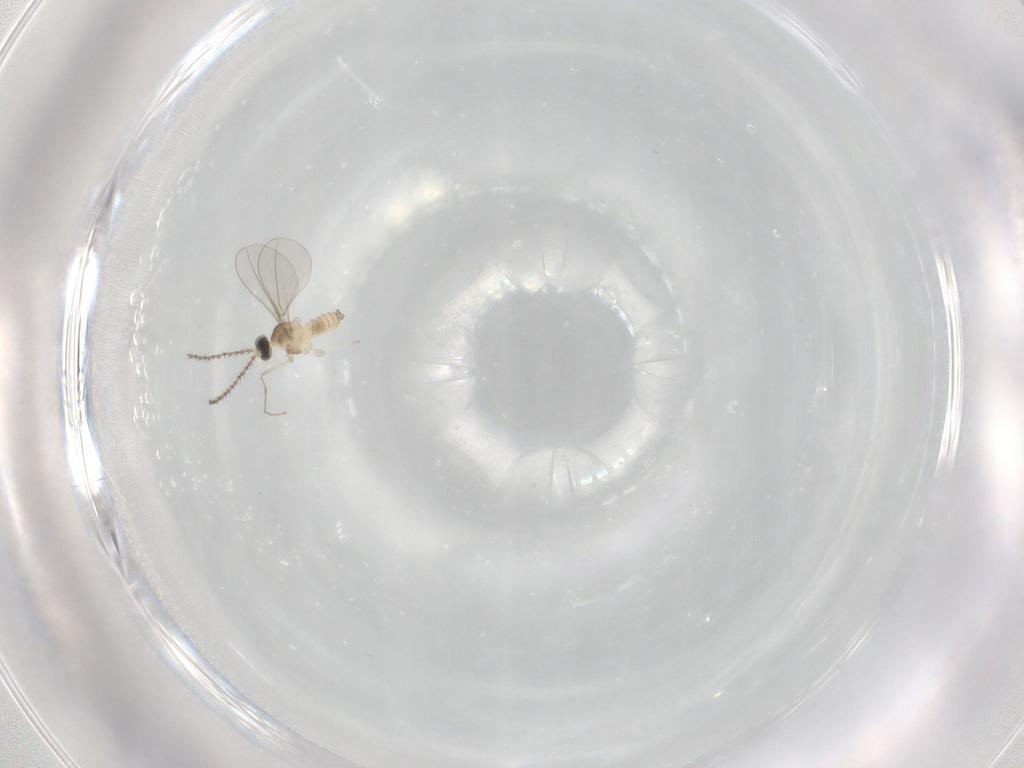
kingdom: Animalia
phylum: Arthropoda
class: Insecta
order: Diptera
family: Cecidomyiidae
